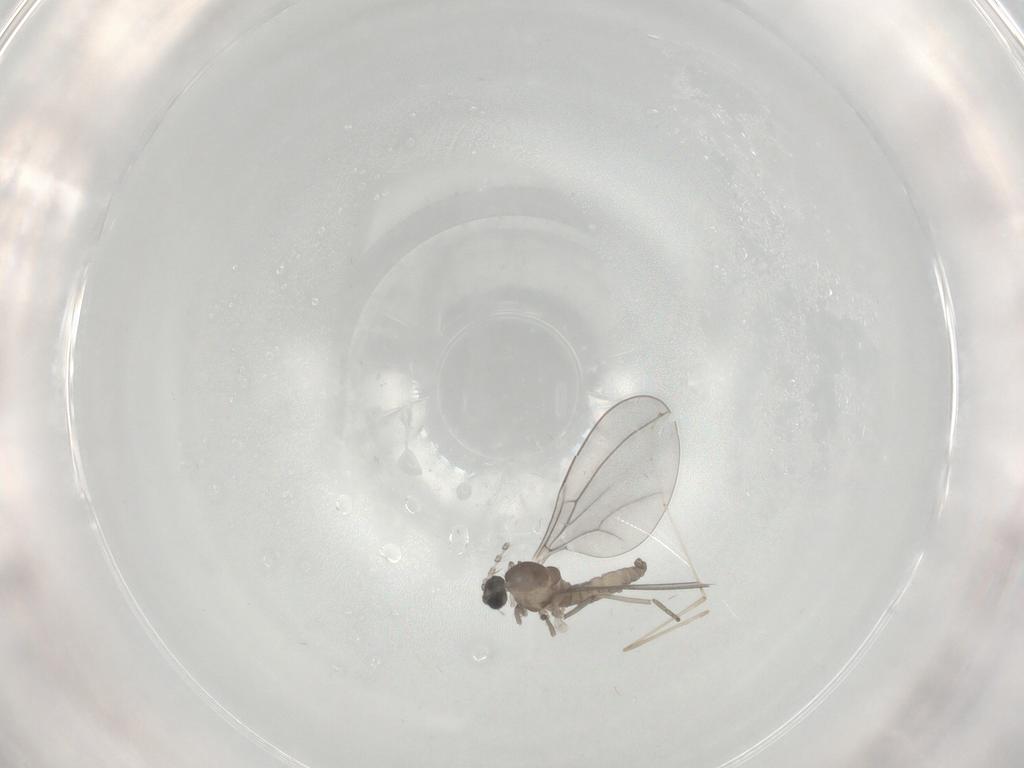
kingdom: Animalia
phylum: Arthropoda
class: Insecta
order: Diptera
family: Cecidomyiidae
